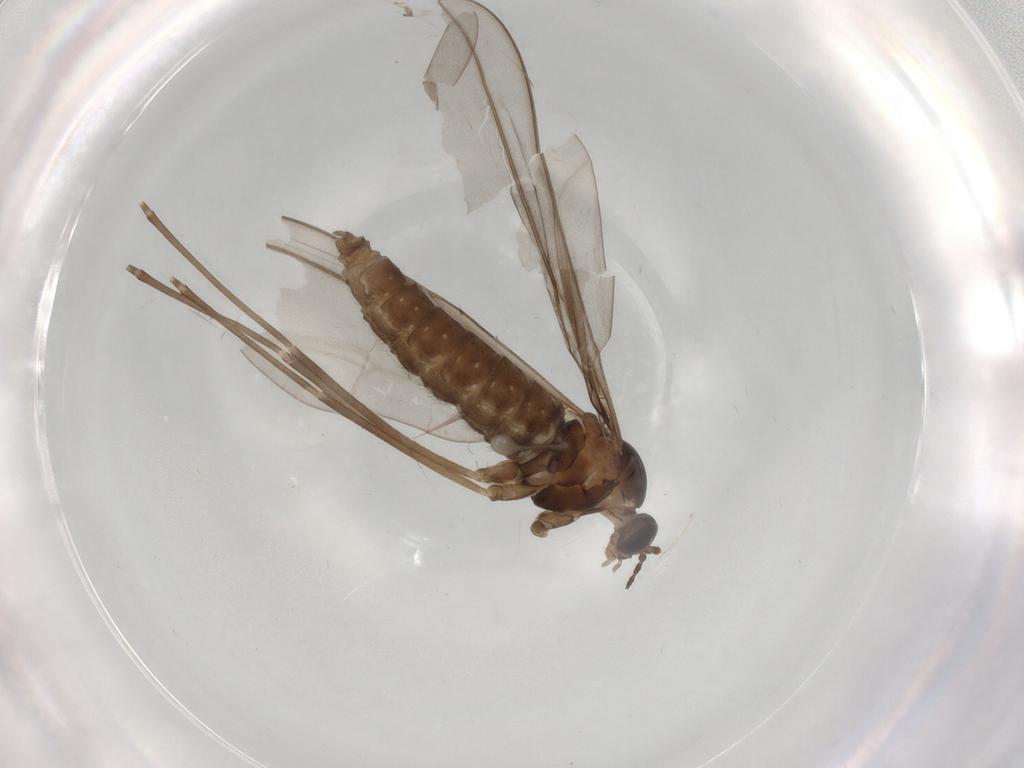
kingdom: Animalia
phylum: Arthropoda
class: Insecta
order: Diptera
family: Cecidomyiidae
